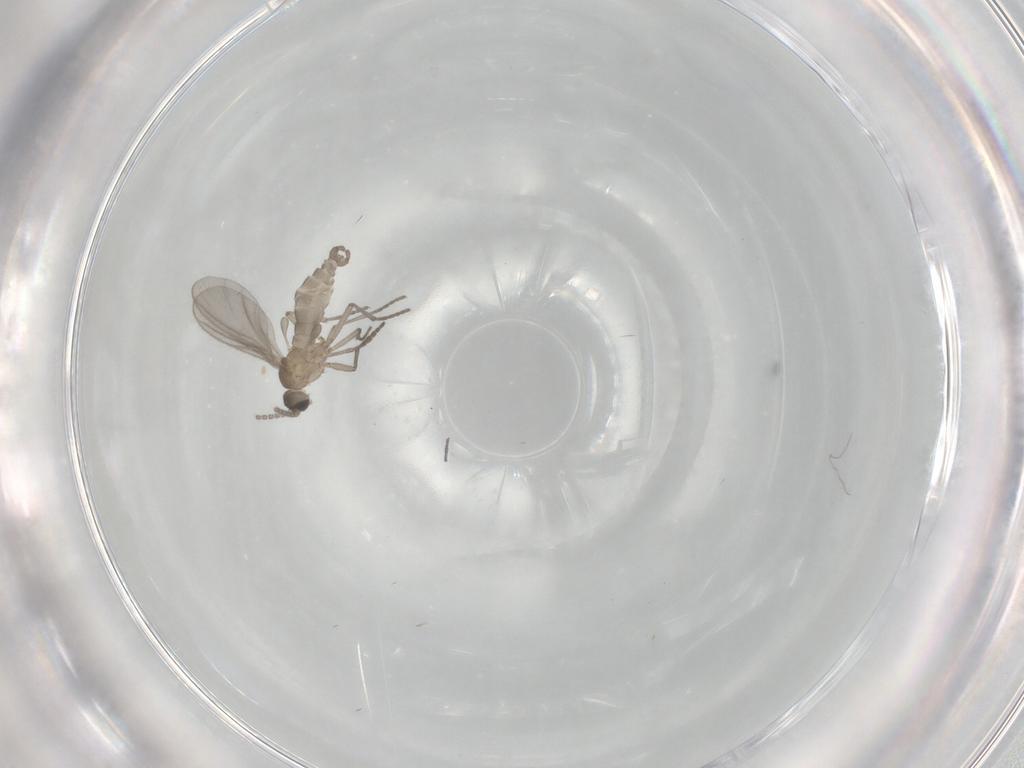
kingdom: Animalia
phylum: Arthropoda
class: Insecta
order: Diptera
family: Sciaridae
